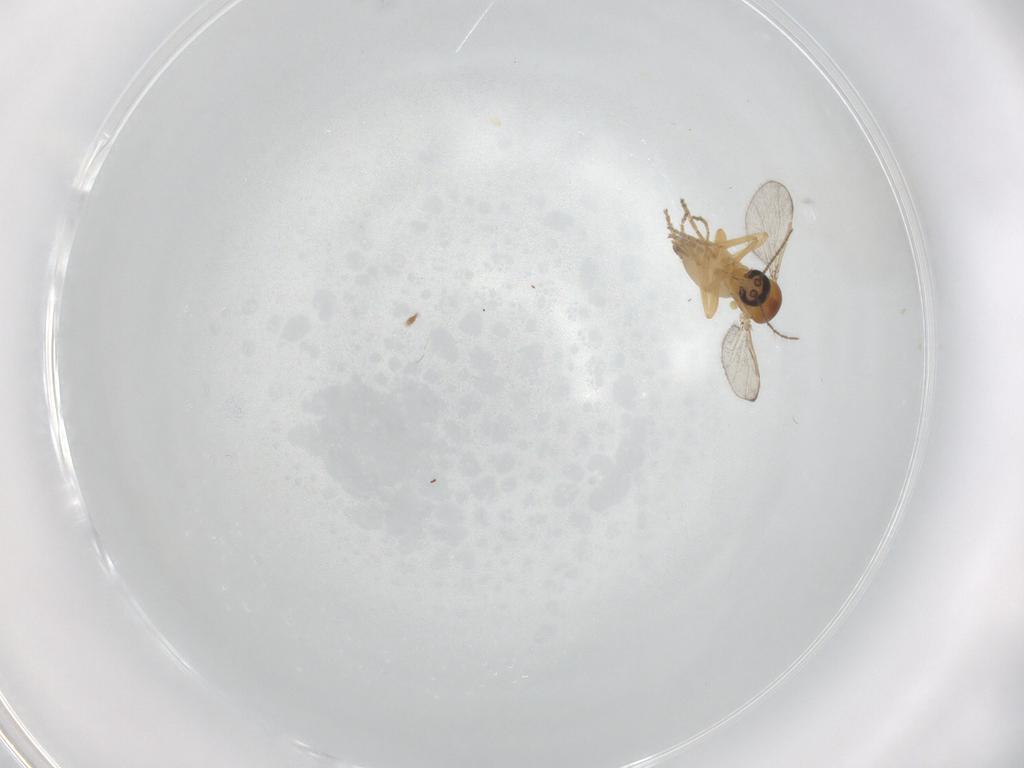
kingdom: Animalia
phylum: Arthropoda
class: Insecta
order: Diptera
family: Ceratopogonidae
